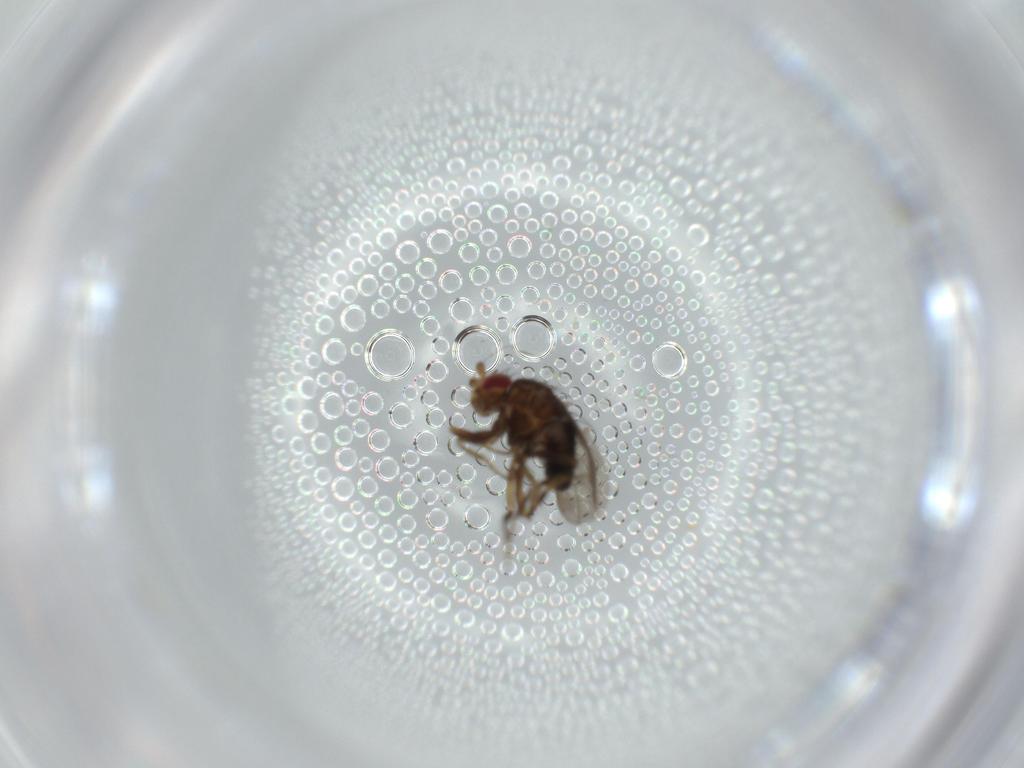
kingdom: Animalia
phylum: Arthropoda
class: Insecta
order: Diptera
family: Sphaeroceridae
